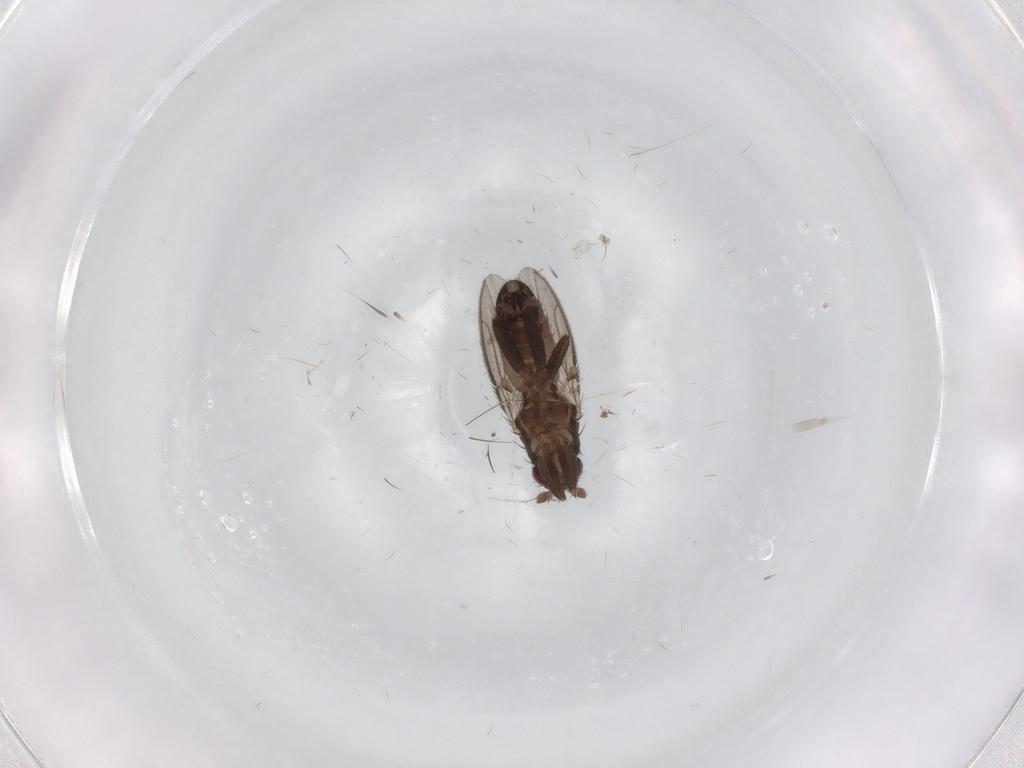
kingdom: Animalia
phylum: Arthropoda
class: Insecta
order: Diptera
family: Sphaeroceridae
